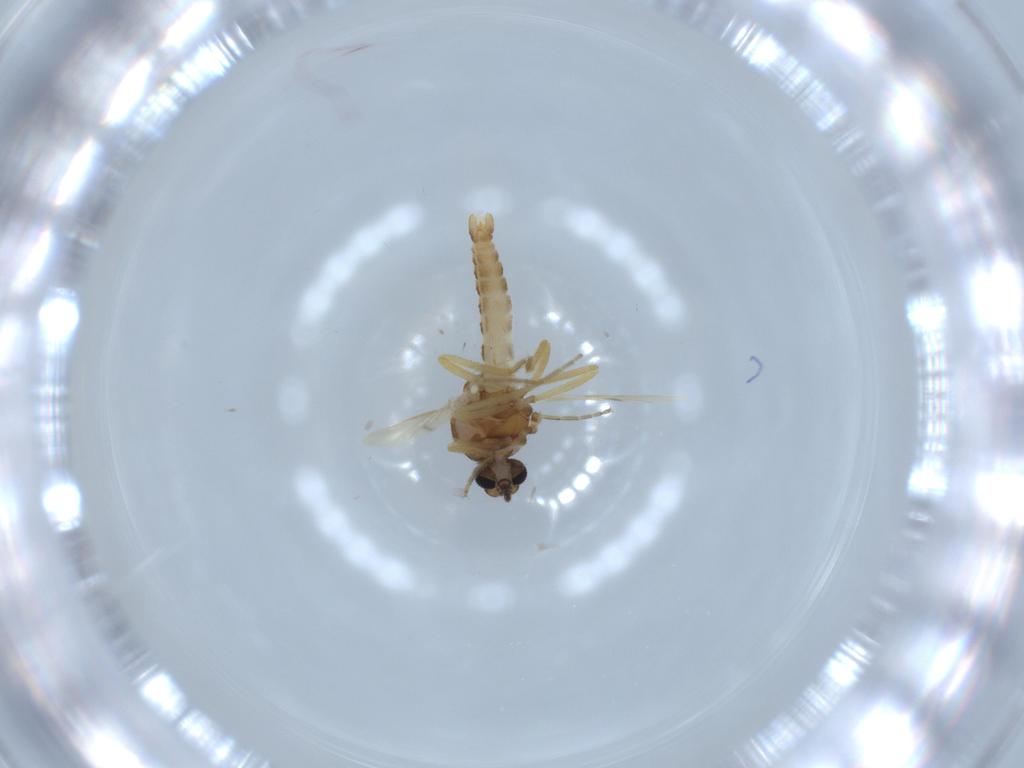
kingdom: Animalia
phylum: Arthropoda
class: Insecta
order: Diptera
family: Ceratopogonidae
